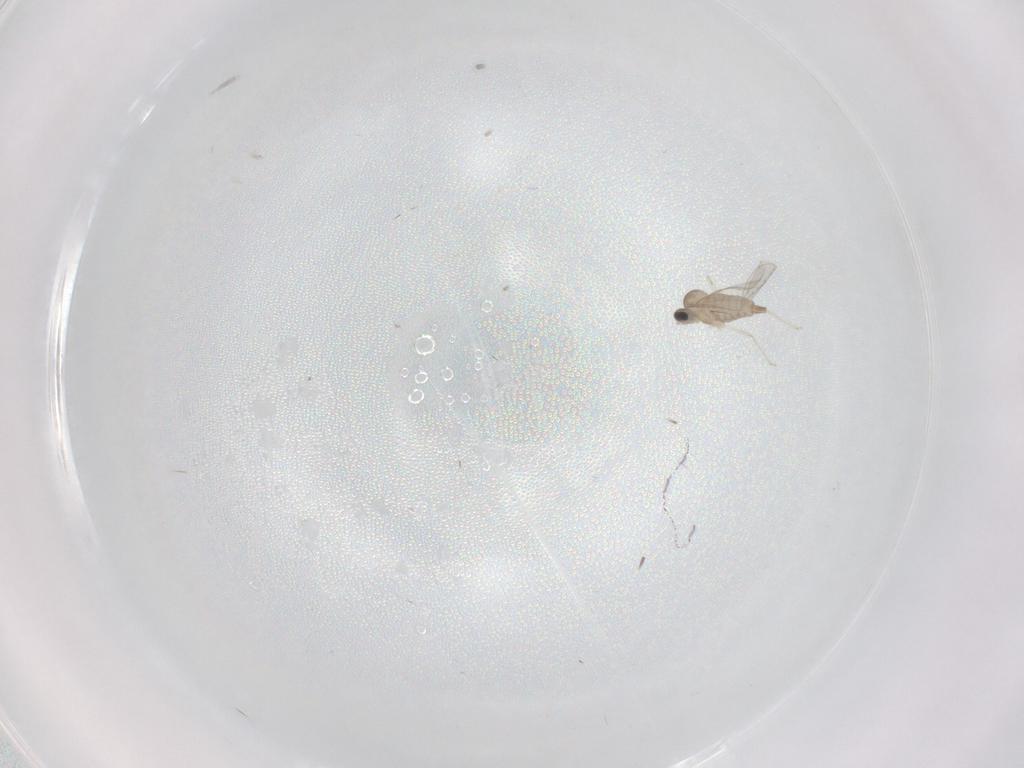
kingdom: Animalia
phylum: Arthropoda
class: Insecta
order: Diptera
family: Cecidomyiidae
